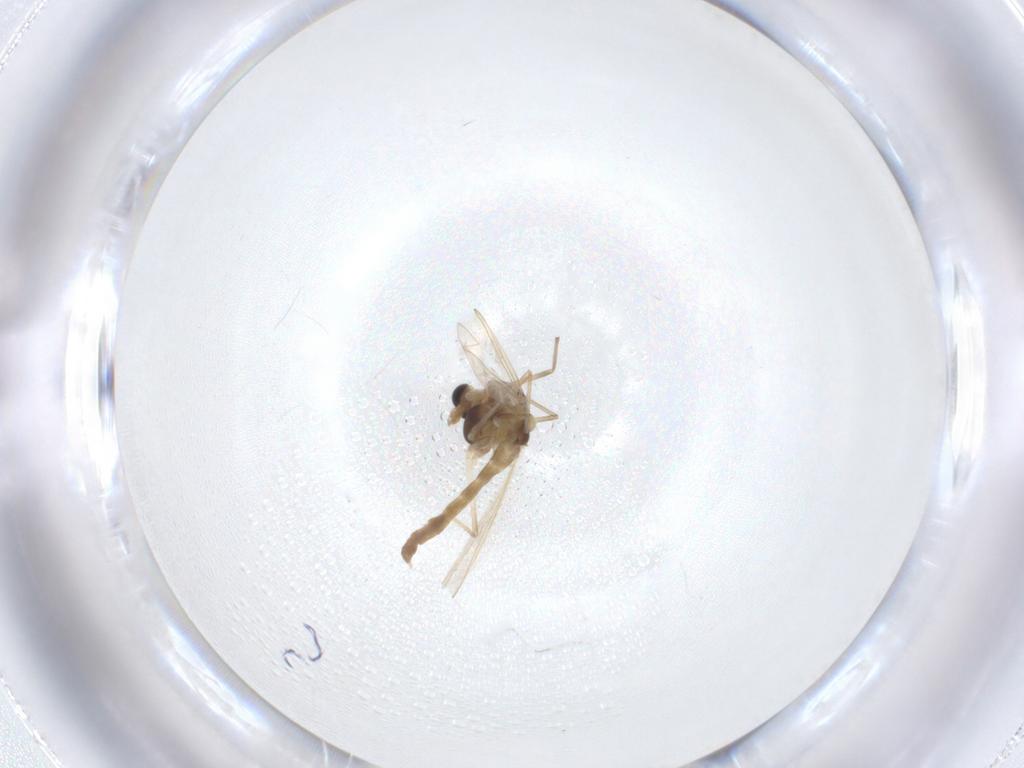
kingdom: Animalia
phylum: Arthropoda
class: Insecta
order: Diptera
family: Chironomidae
